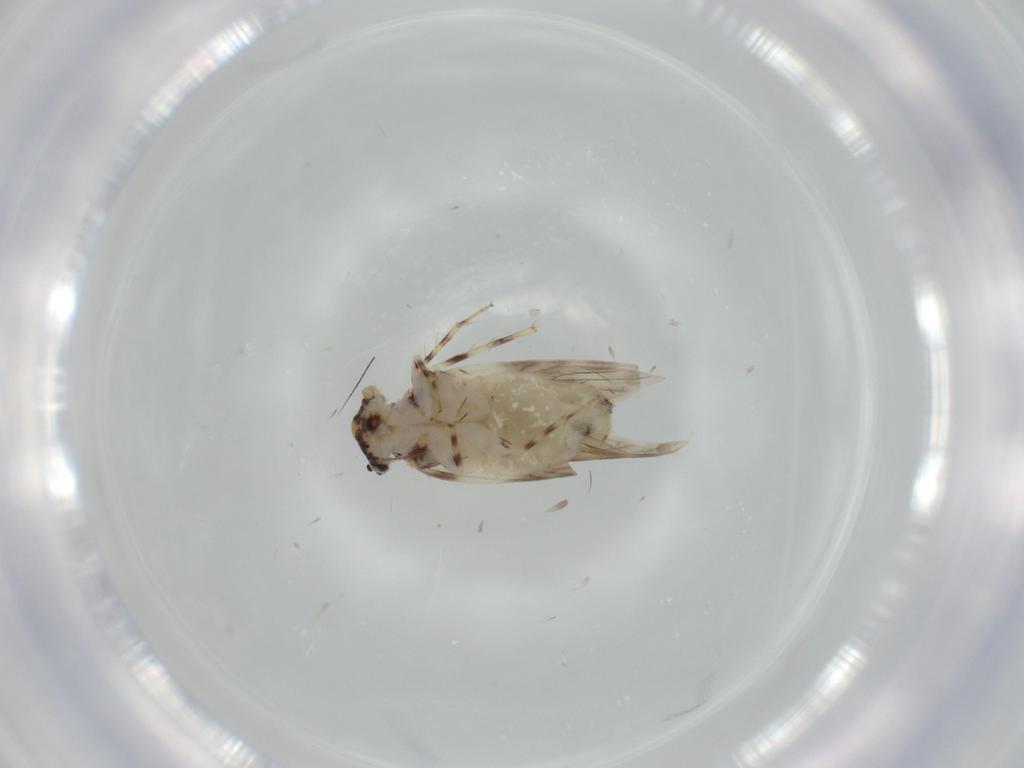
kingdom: Animalia
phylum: Arthropoda
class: Insecta
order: Psocodea
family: Lepidopsocidae
